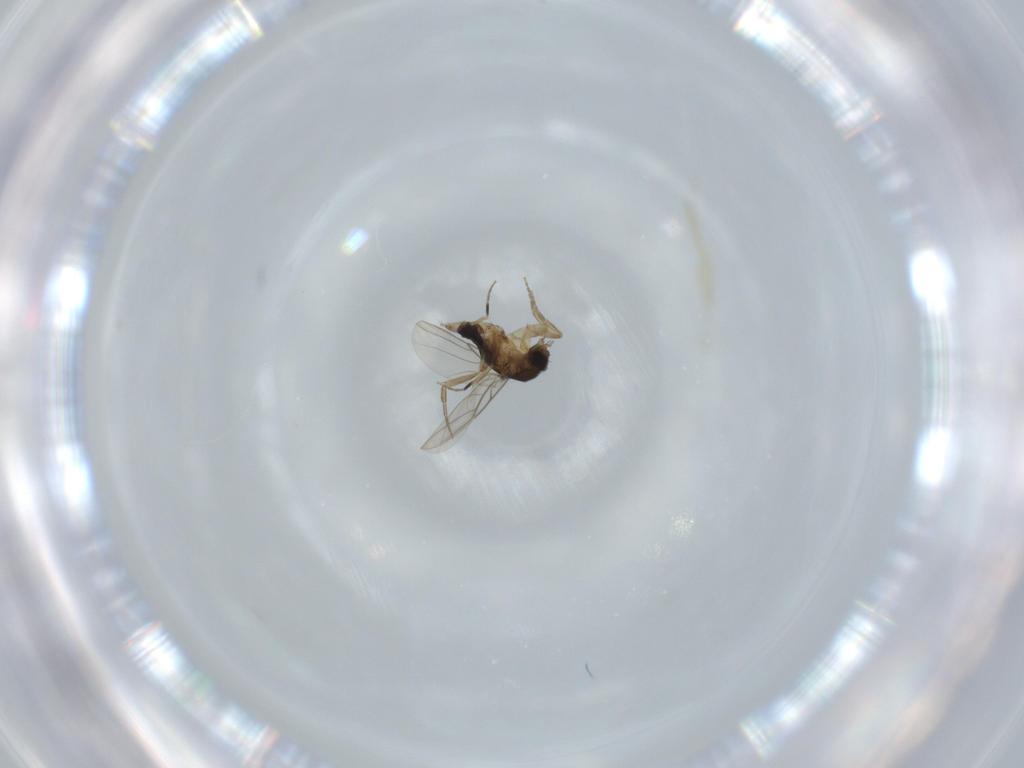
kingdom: Animalia
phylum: Arthropoda
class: Insecta
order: Diptera
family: Phoridae
